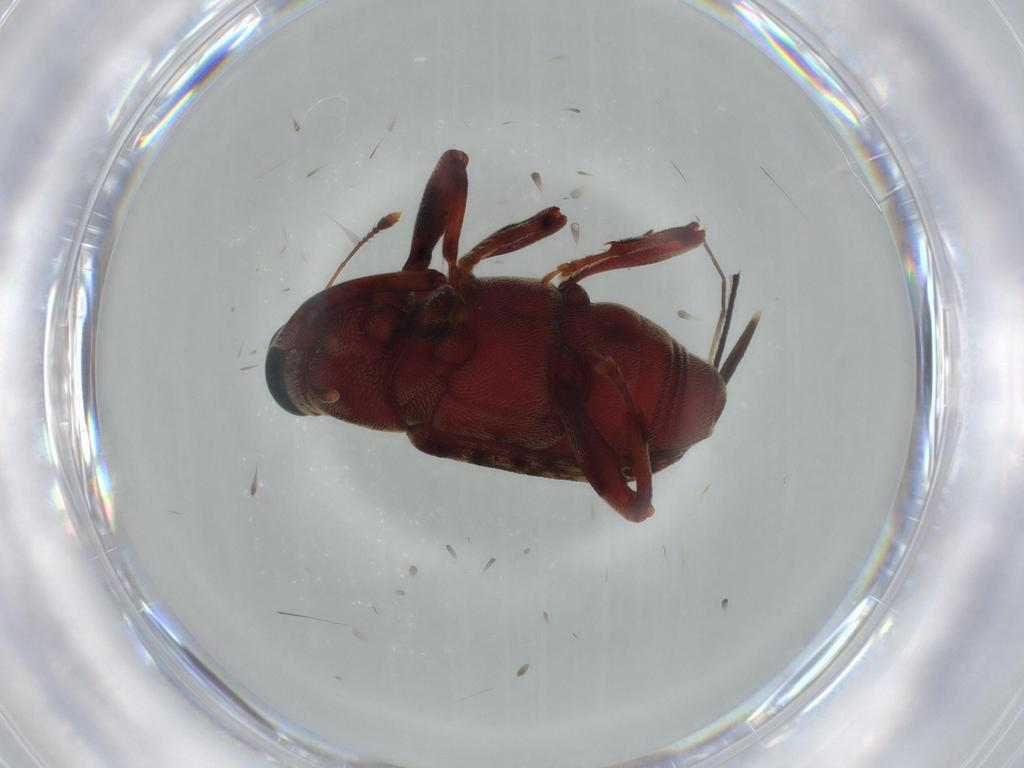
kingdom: Animalia
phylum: Arthropoda
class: Insecta
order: Coleoptera
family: Curculionidae
